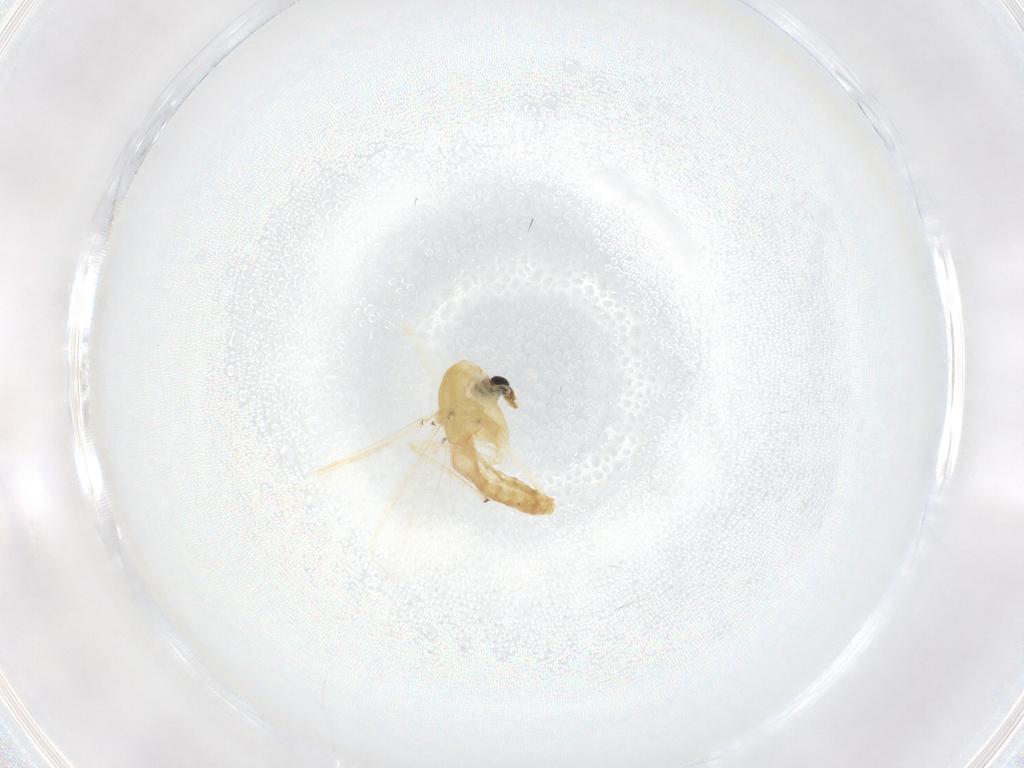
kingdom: Animalia
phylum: Arthropoda
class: Insecta
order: Diptera
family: Chironomidae
